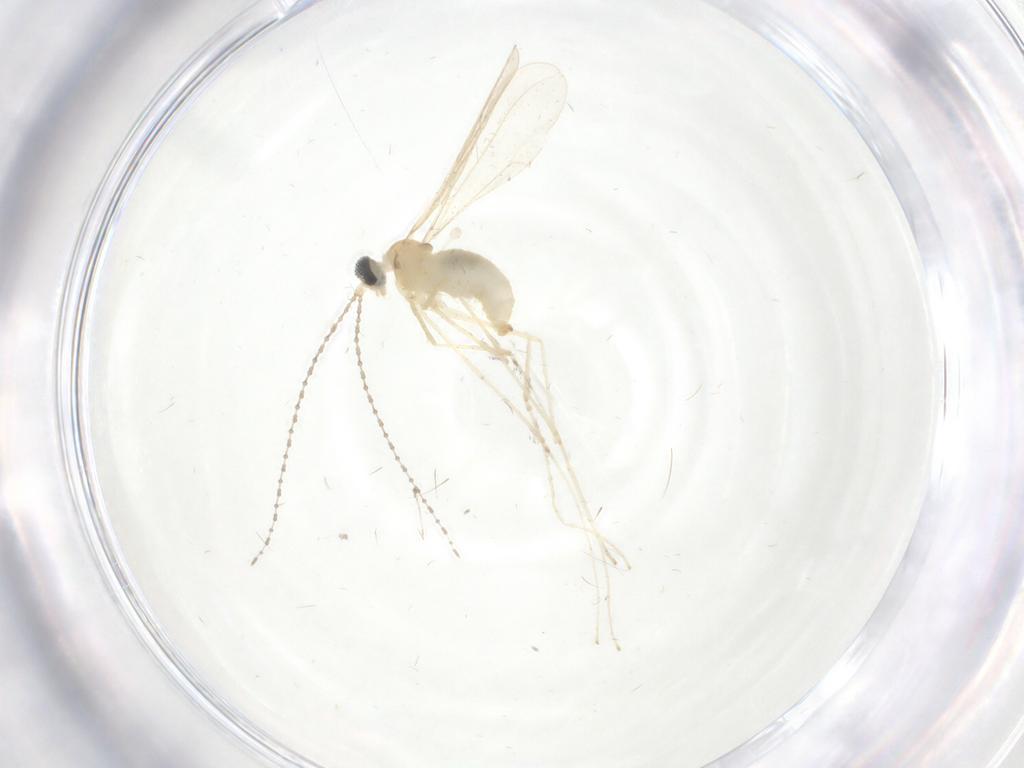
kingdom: Animalia
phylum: Arthropoda
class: Insecta
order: Diptera
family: Cecidomyiidae
